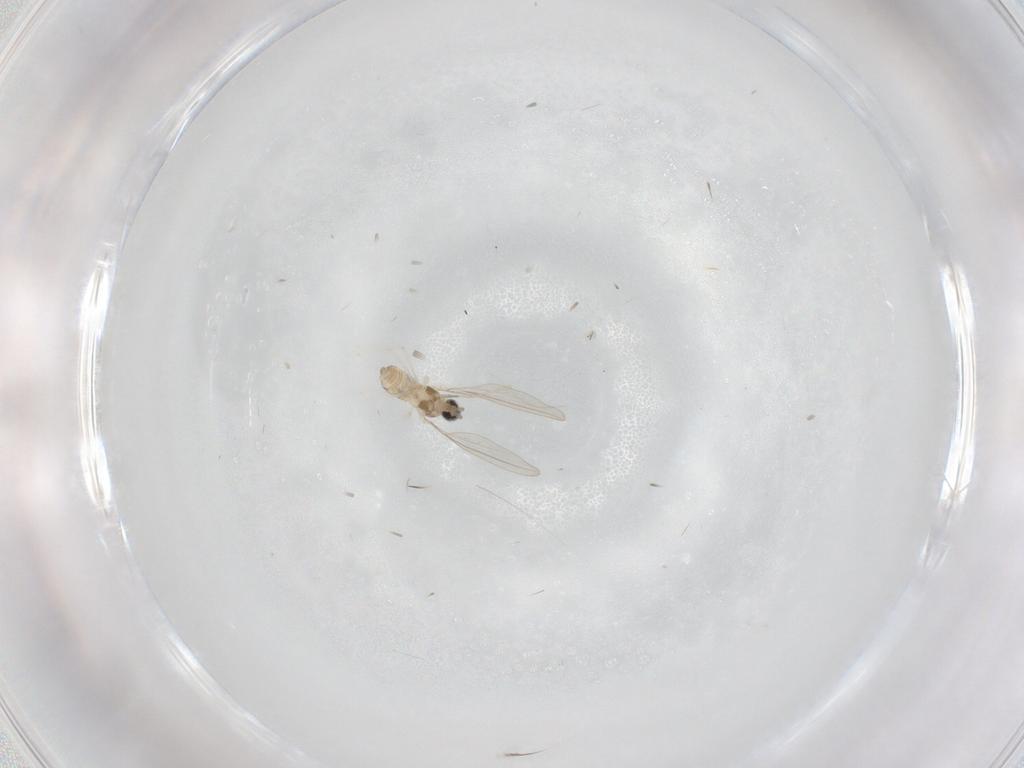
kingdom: Animalia
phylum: Arthropoda
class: Insecta
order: Diptera
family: Cecidomyiidae
